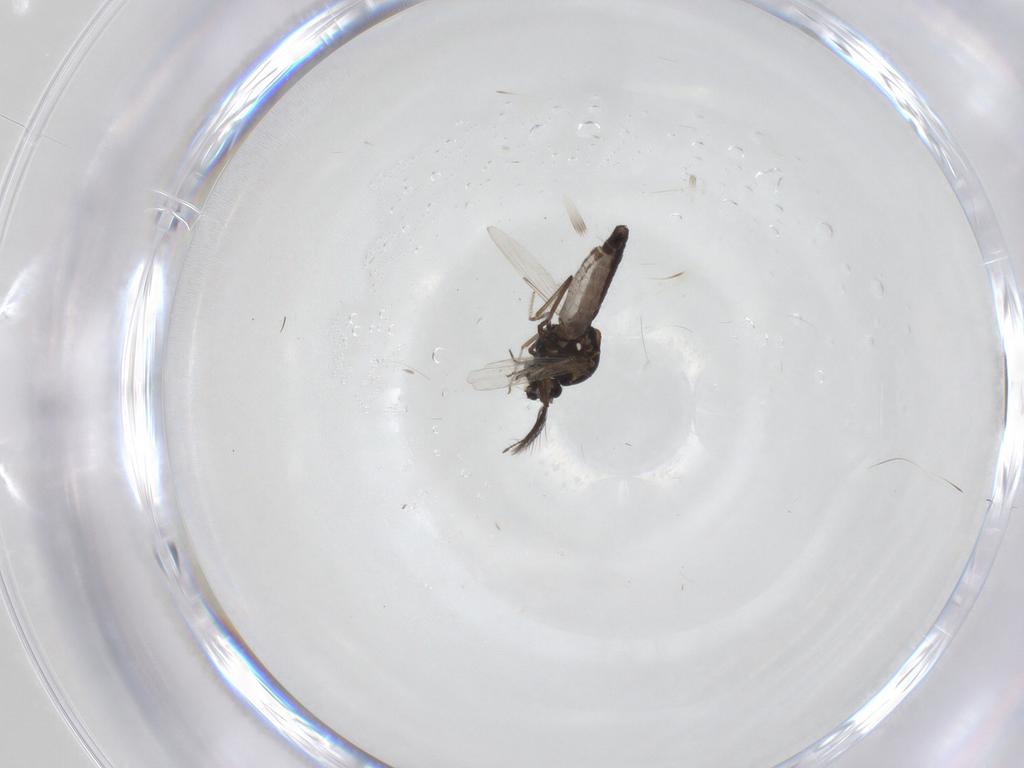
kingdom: Animalia
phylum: Arthropoda
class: Insecta
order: Diptera
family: Ceratopogonidae
